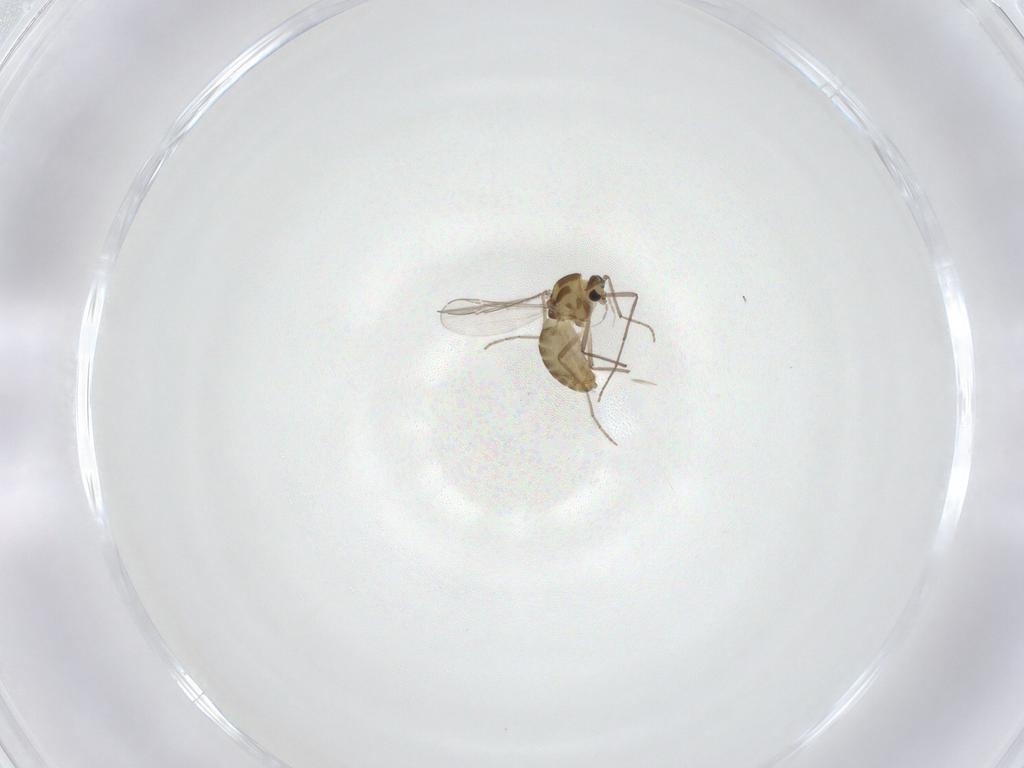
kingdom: Animalia
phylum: Arthropoda
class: Insecta
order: Diptera
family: Chironomidae
